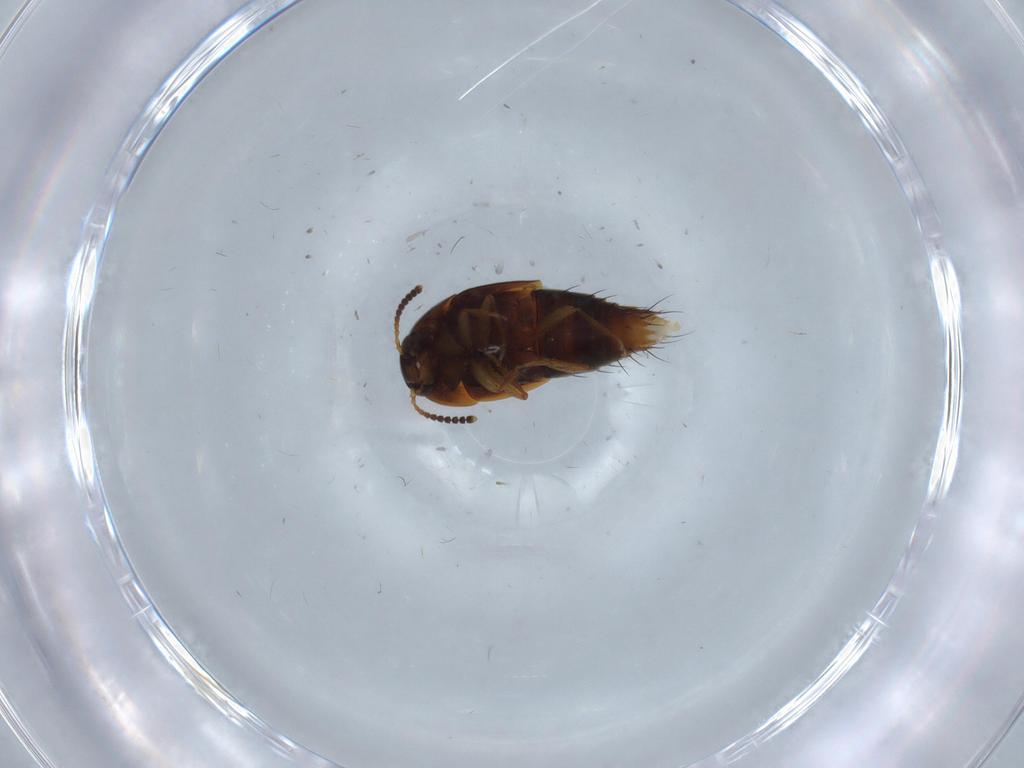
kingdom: Animalia
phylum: Arthropoda
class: Insecta
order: Coleoptera
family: Staphylinidae
